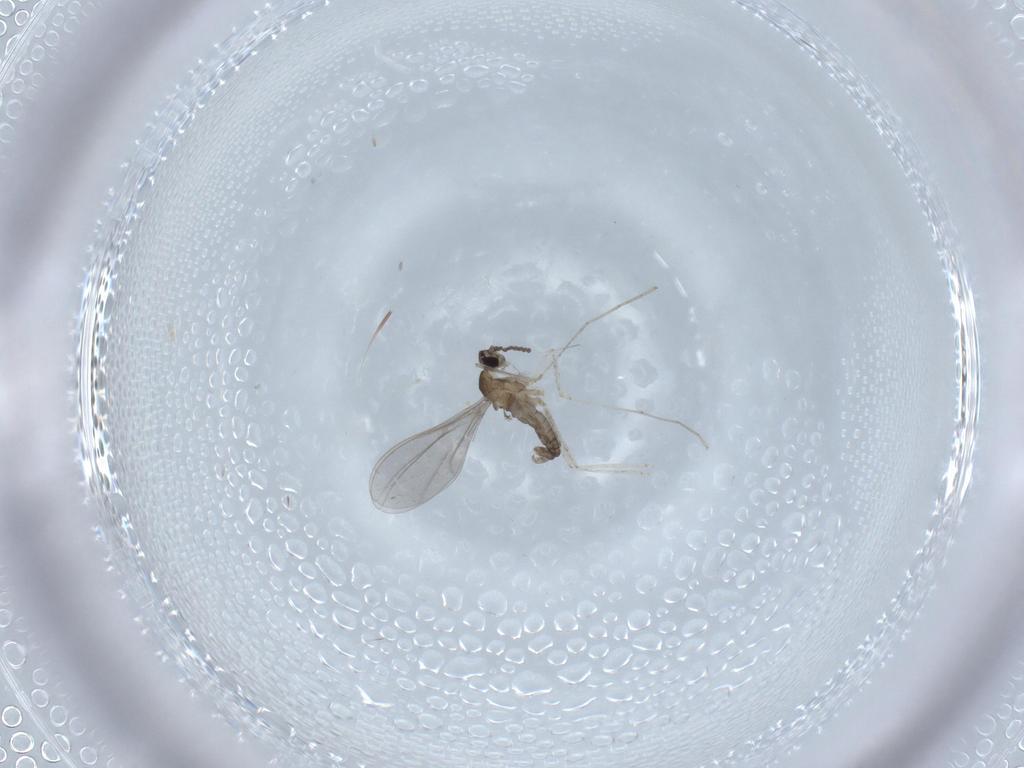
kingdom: Animalia
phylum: Arthropoda
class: Insecta
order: Diptera
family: Cecidomyiidae
